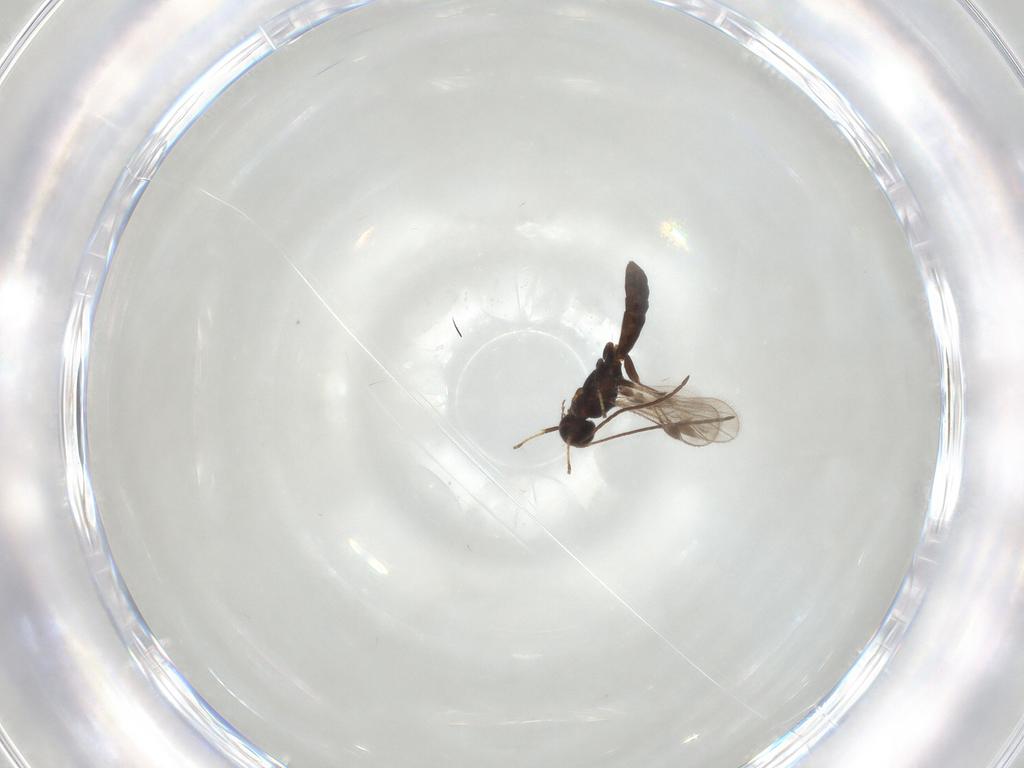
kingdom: Animalia
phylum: Arthropoda
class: Insecta
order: Hymenoptera
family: Braconidae
